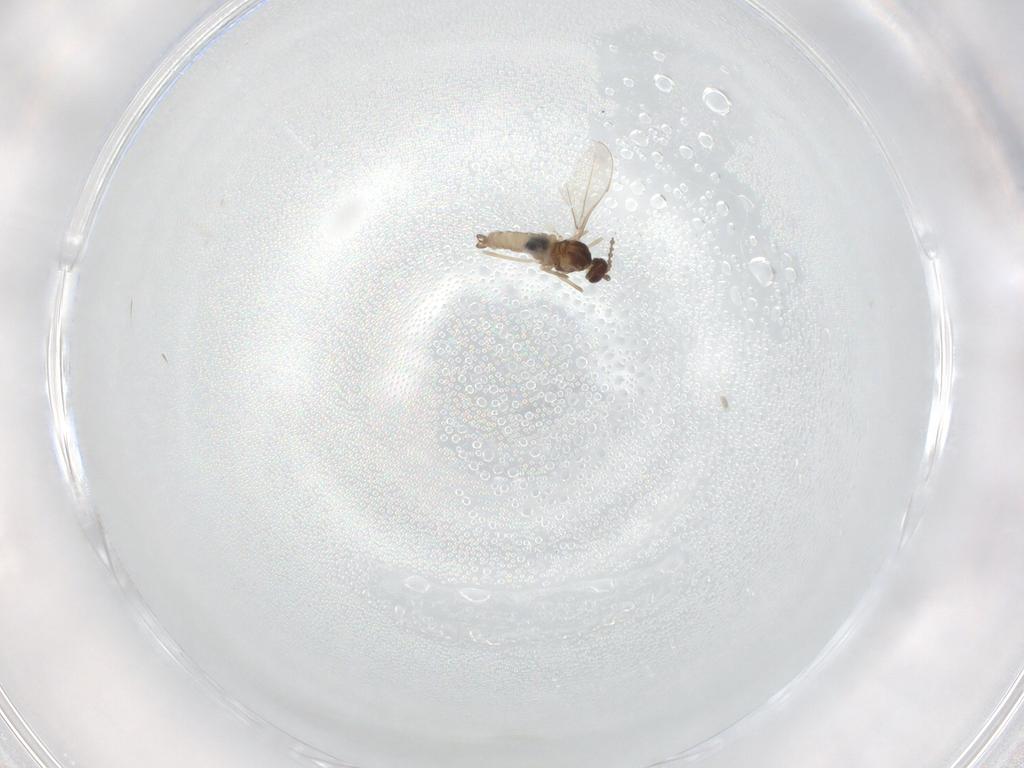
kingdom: Animalia
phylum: Arthropoda
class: Insecta
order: Diptera
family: Cecidomyiidae
